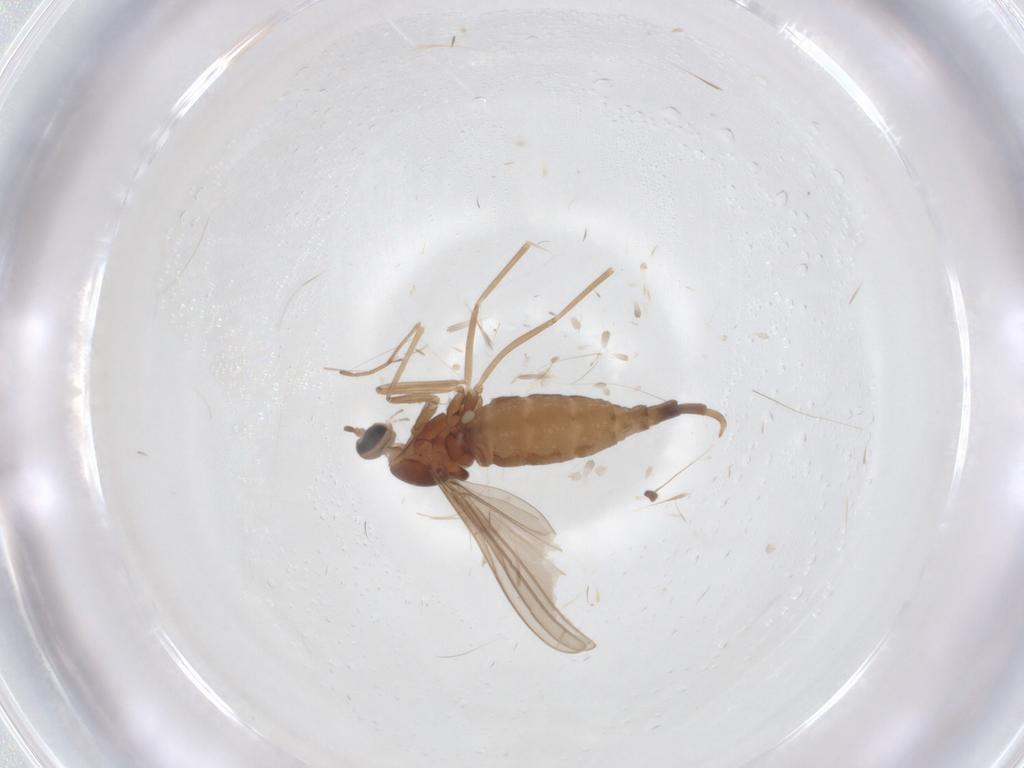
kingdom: Animalia
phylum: Arthropoda
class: Insecta
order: Diptera
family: Cecidomyiidae
